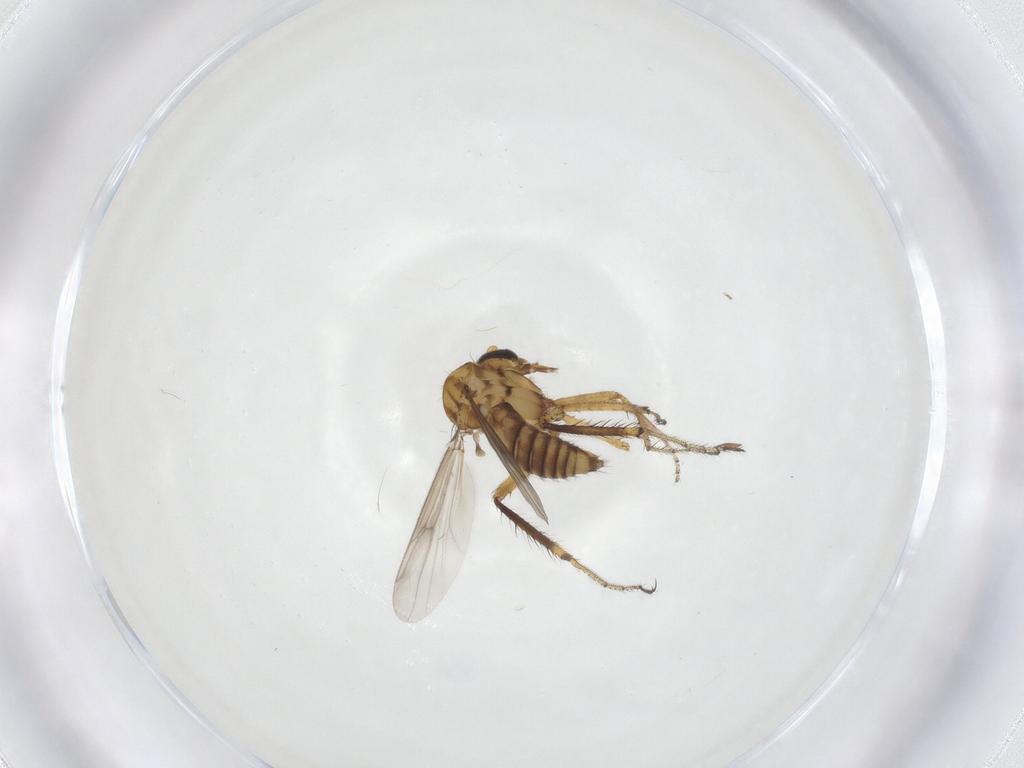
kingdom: Animalia
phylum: Arthropoda
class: Insecta
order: Diptera
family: Ceratopogonidae
